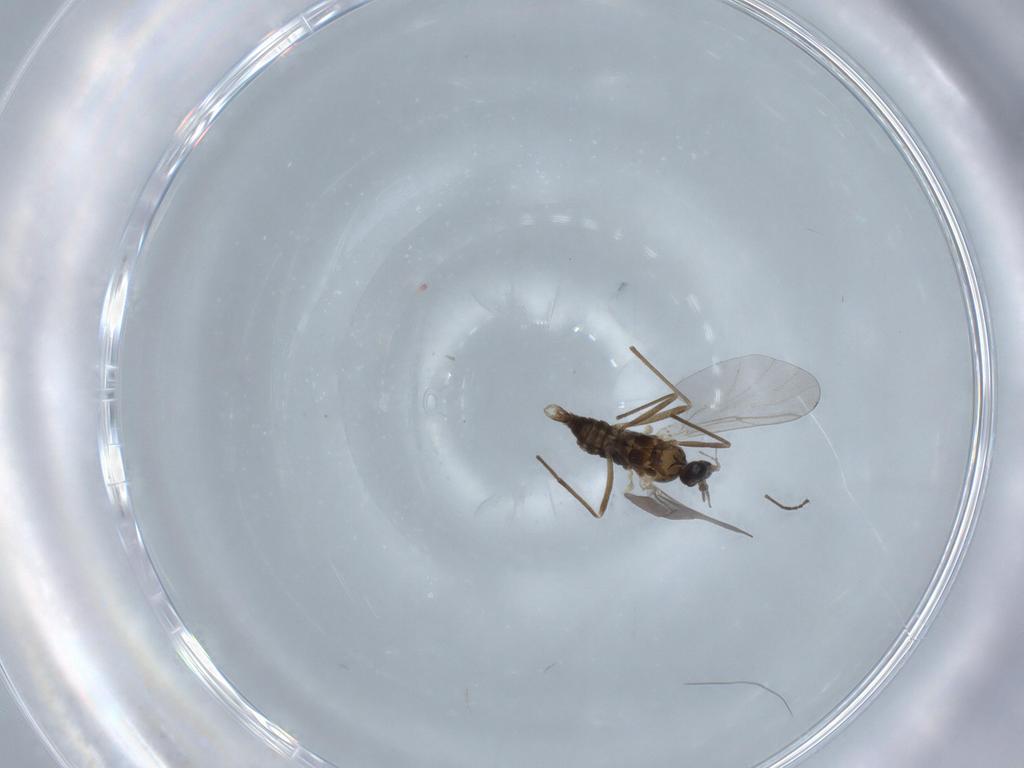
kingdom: Animalia
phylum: Arthropoda
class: Insecta
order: Diptera
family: Cecidomyiidae
